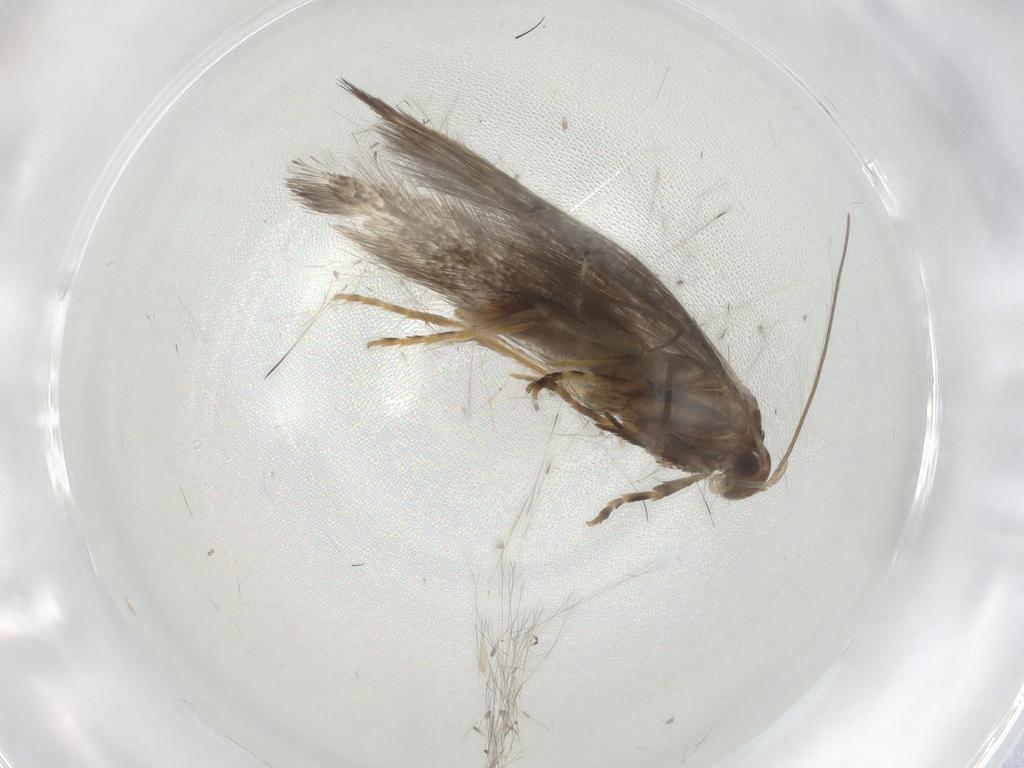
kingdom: Animalia
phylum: Arthropoda
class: Insecta
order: Lepidoptera
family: Elachistidae
